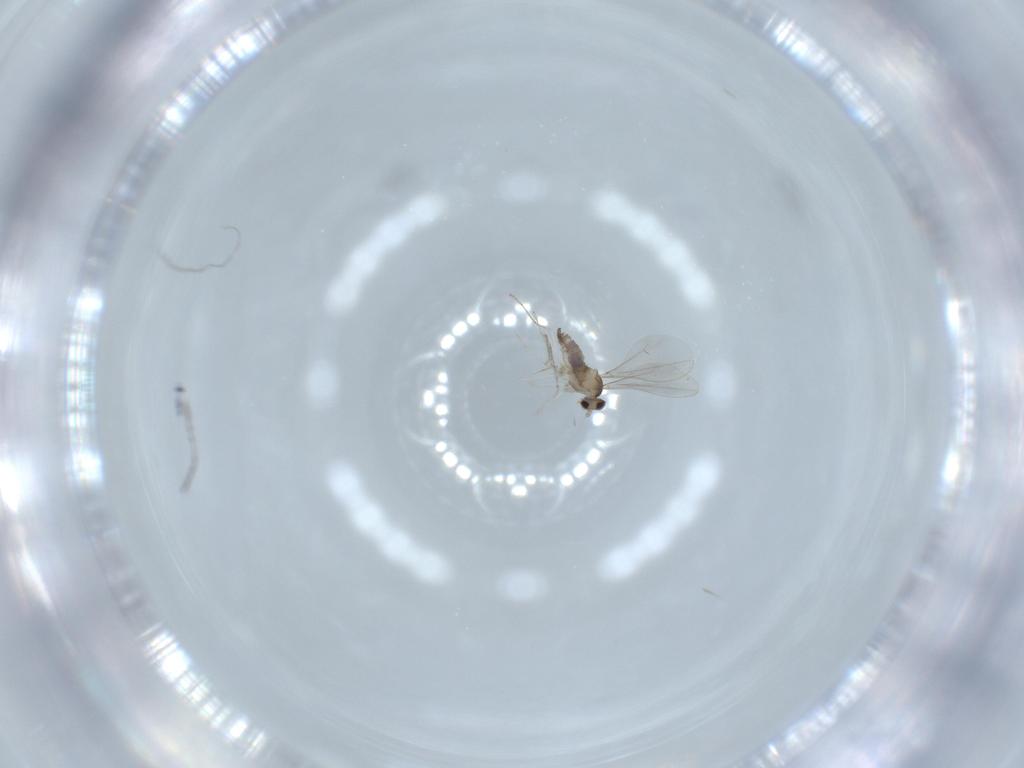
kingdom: Animalia
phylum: Arthropoda
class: Insecta
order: Diptera
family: Cecidomyiidae
